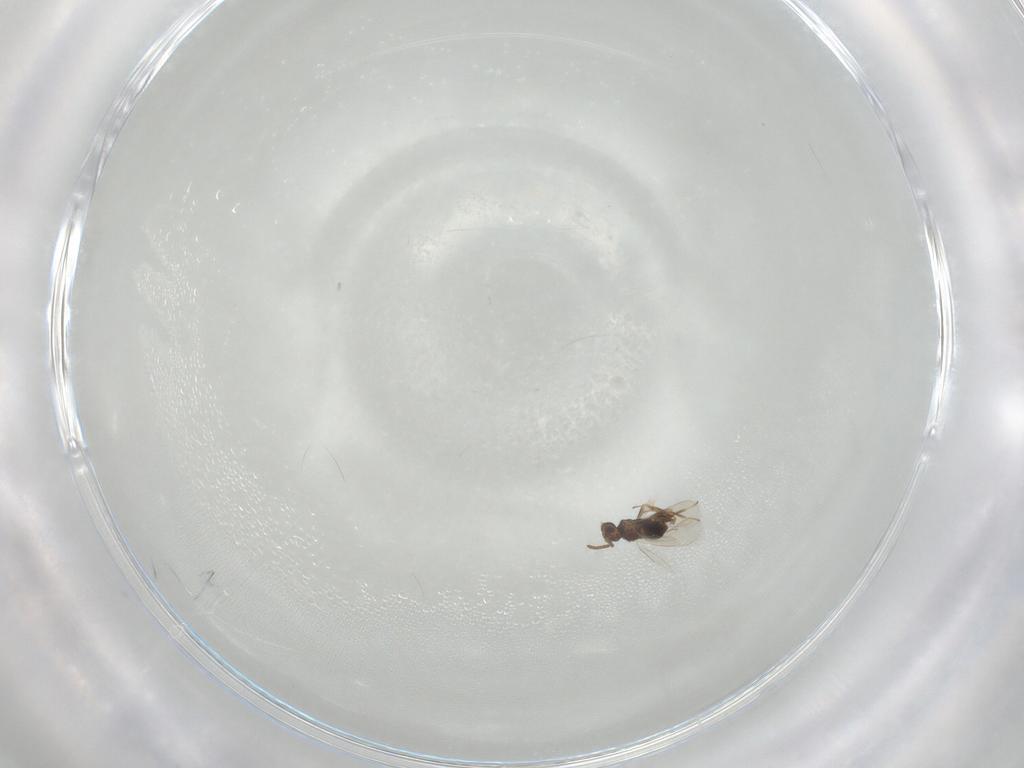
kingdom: Animalia
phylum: Arthropoda
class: Insecta
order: Hymenoptera
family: Aphelinidae
